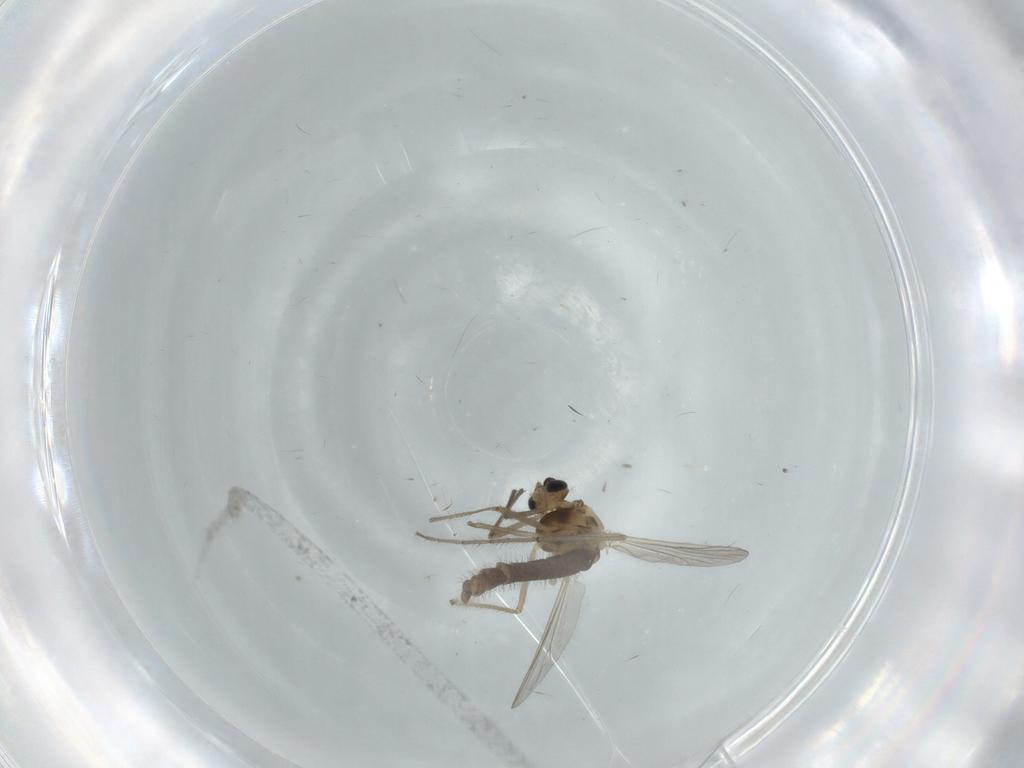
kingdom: Animalia
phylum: Arthropoda
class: Insecta
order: Diptera
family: Chironomidae
